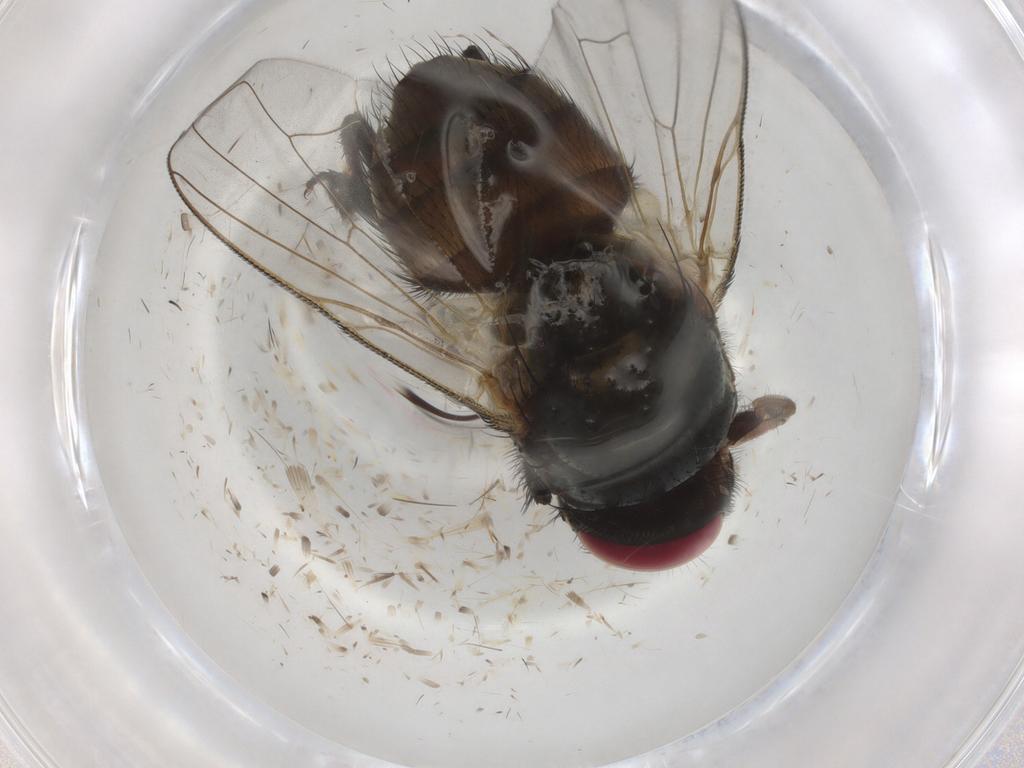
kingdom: Animalia
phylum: Arthropoda
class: Insecta
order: Diptera
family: Muscidae
